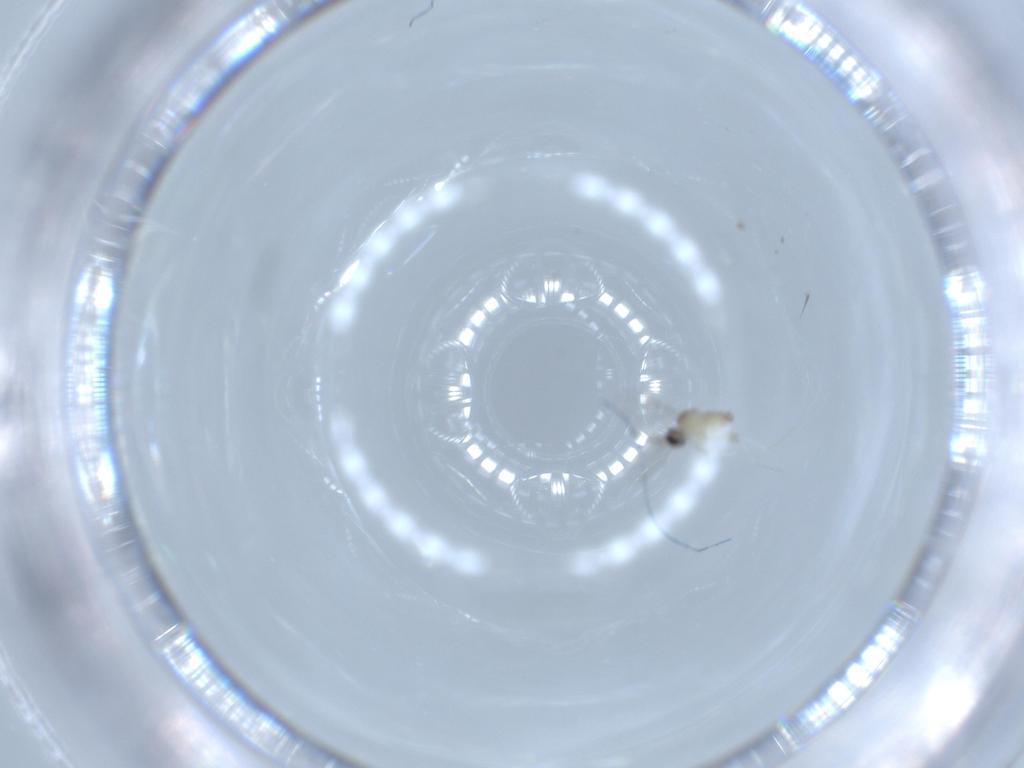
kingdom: Animalia
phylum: Arthropoda
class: Insecta
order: Diptera
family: Cecidomyiidae
